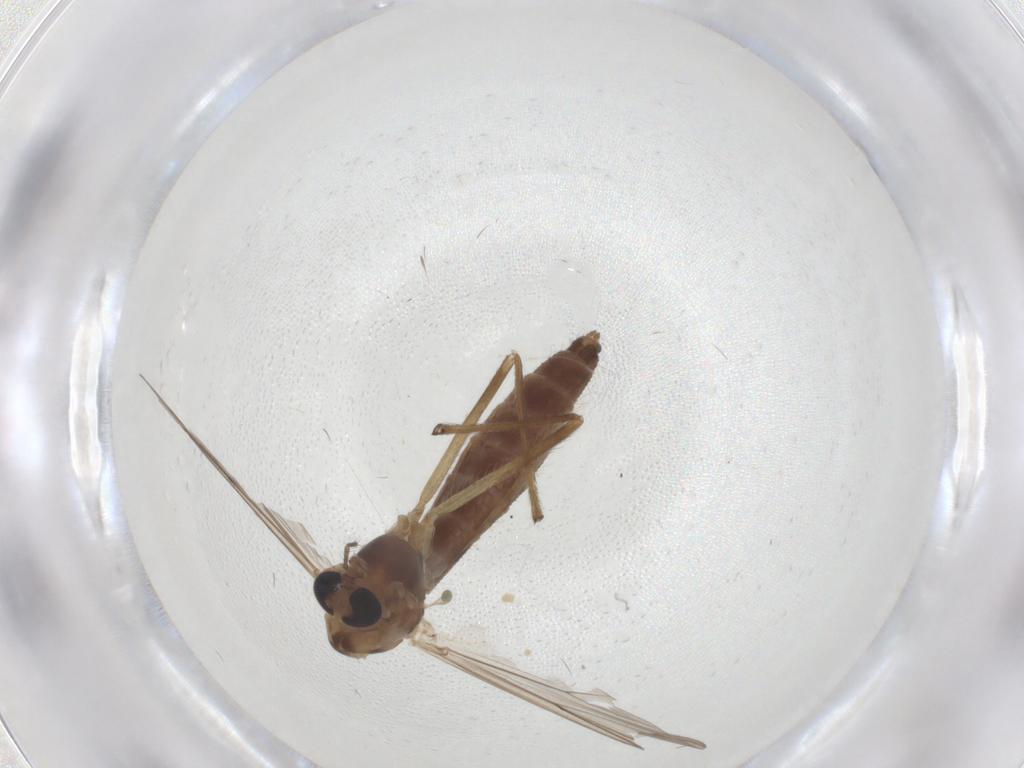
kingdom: Animalia
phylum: Arthropoda
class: Insecta
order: Diptera
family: Chironomidae
